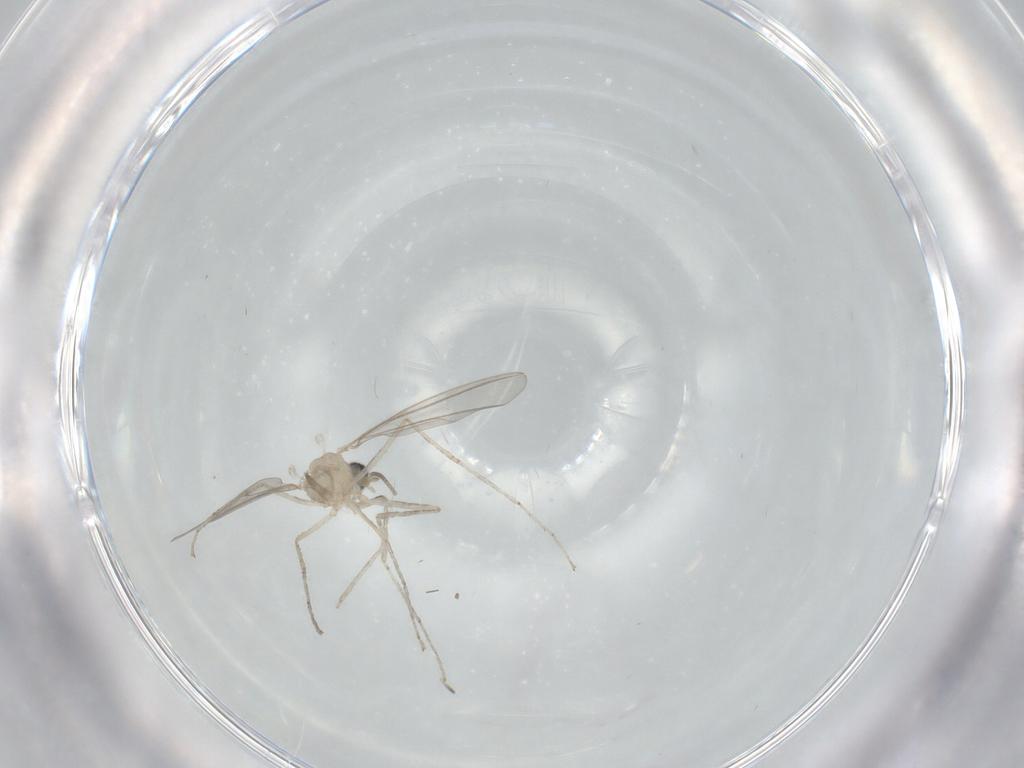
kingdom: Animalia
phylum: Arthropoda
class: Insecta
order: Diptera
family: Cecidomyiidae
